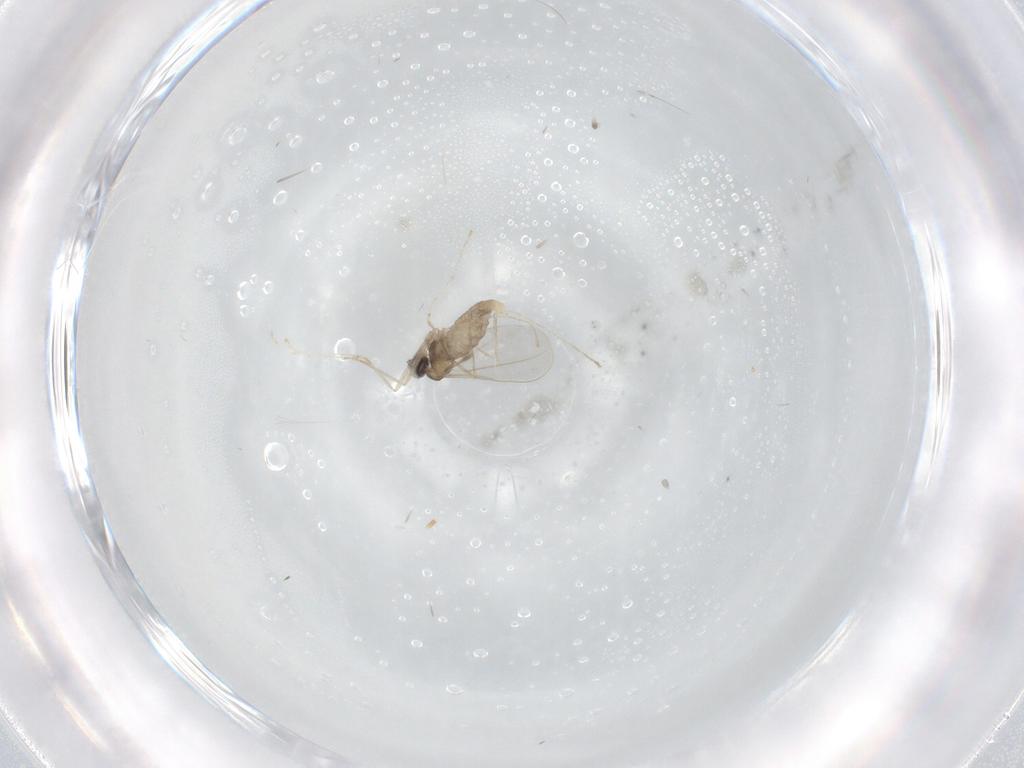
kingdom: Animalia
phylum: Arthropoda
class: Insecta
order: Diptera
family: Cecidomyiidae
